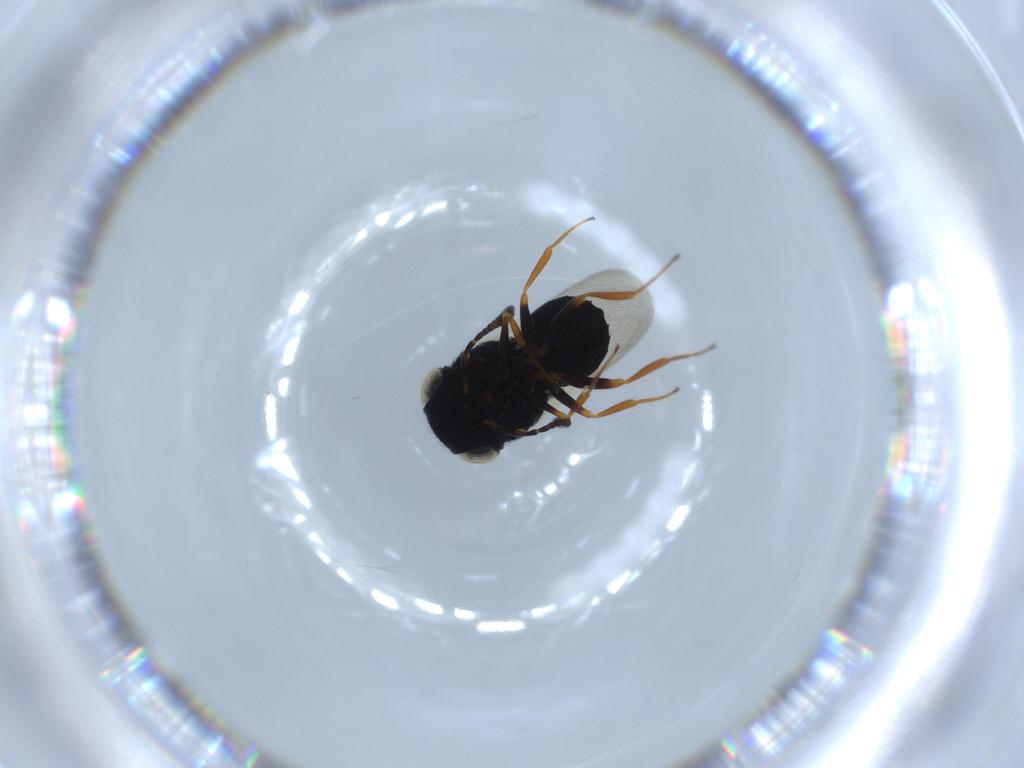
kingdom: Animalia
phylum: Arthropoda
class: Insecta
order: Hymenoptera
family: Scelionidae
